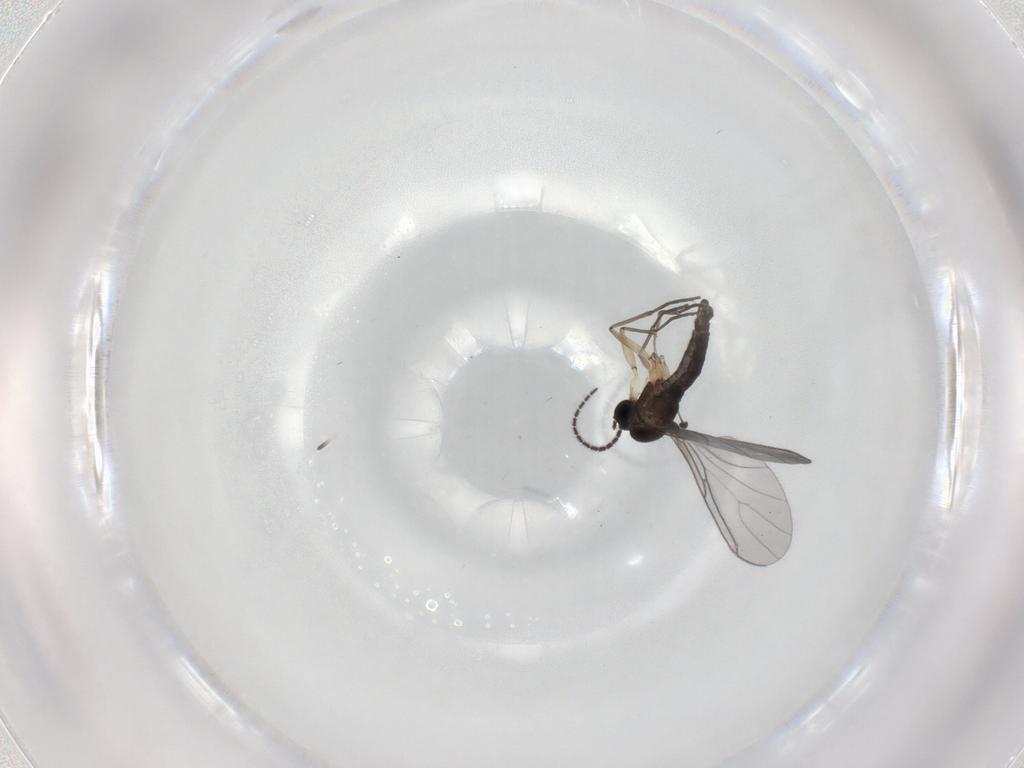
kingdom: Animalia
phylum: Arthropoda
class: Insecta
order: Diptera
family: Sciaridae
